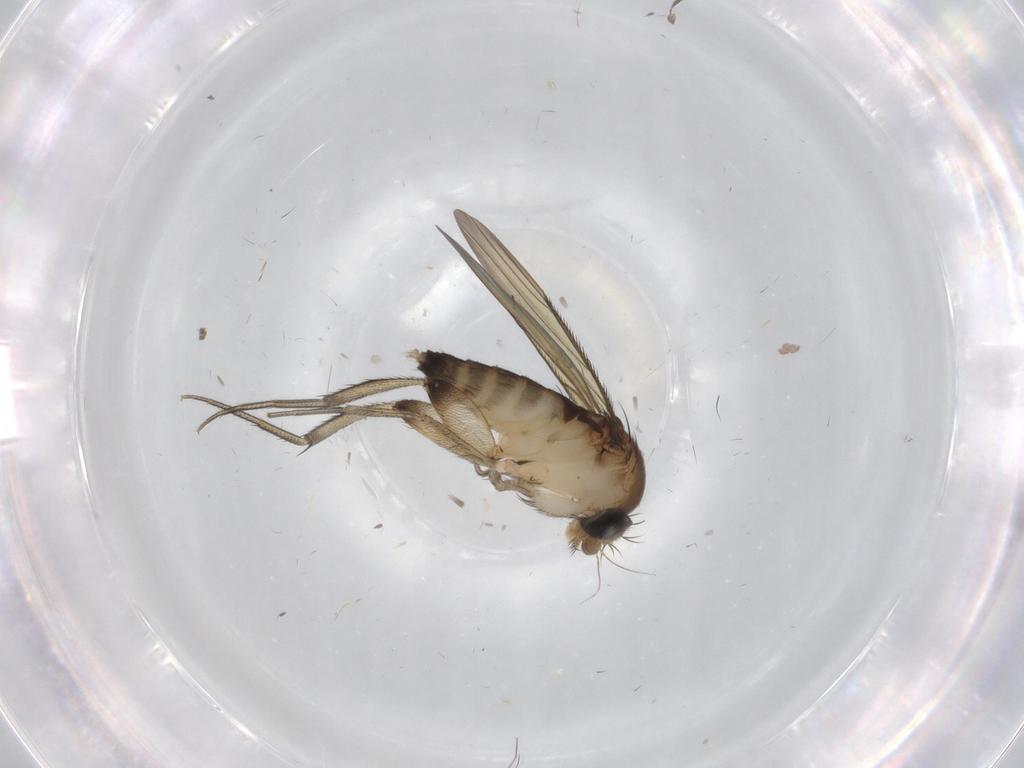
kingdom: Animalia
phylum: Arthropoda
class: Insecta
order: Diptera
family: Phoridae
